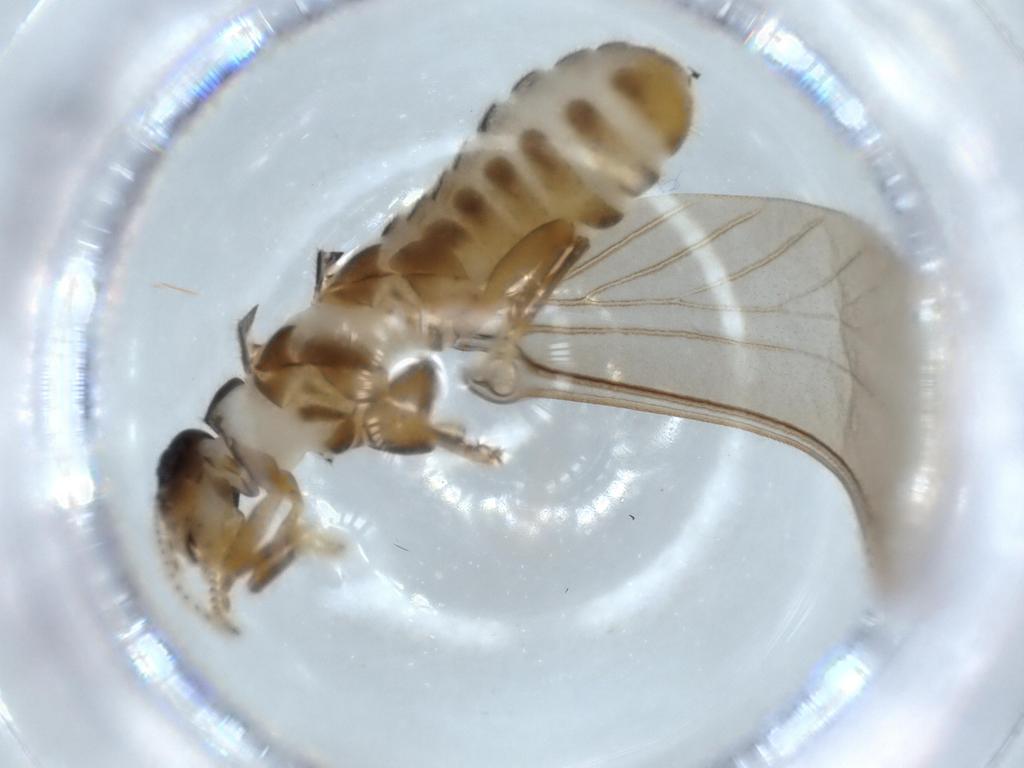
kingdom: Animalia
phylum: Arthropoda
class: Insecta
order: Blattodea
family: Termitidae
